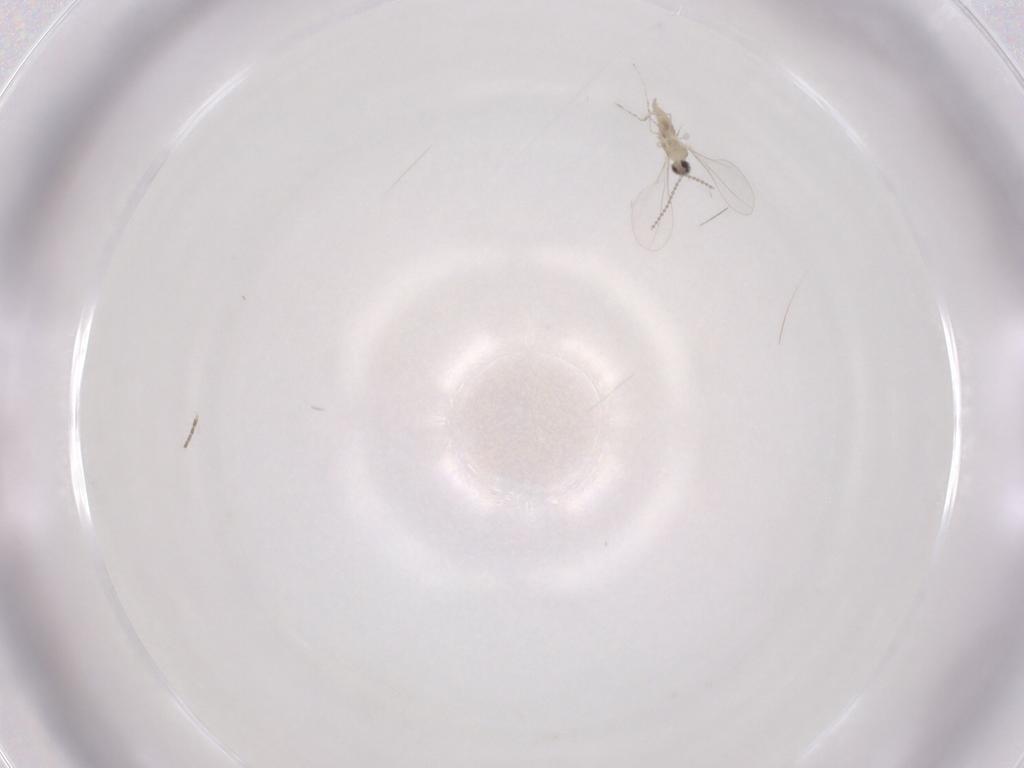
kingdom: Animalia
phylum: Arthropoda
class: Insecta
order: Diptera
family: Cecidomyiidae
